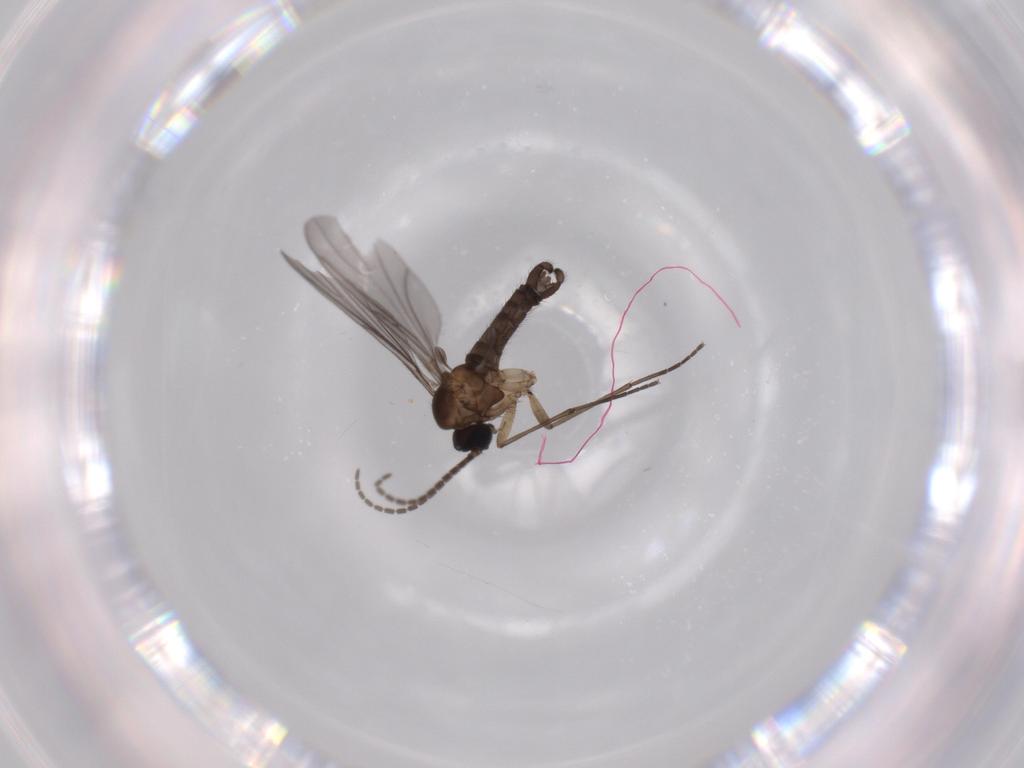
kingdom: Animalia
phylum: Arthropoda
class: Insecta
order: Diptera
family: Sciaridae
